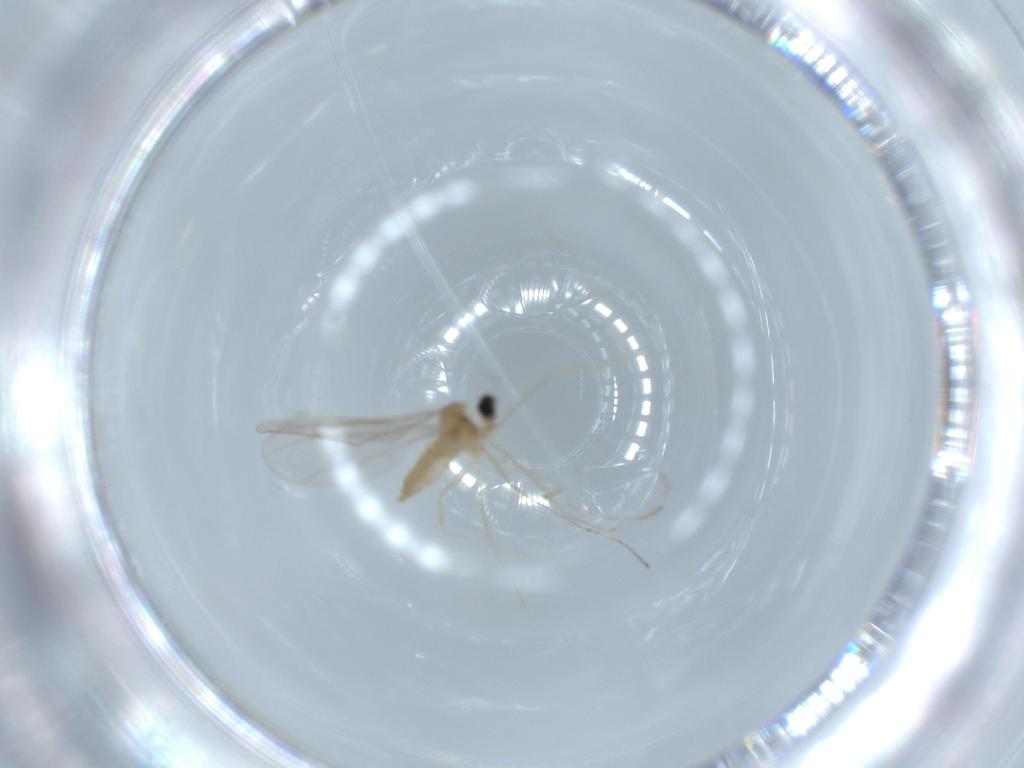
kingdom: Animalia
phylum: Arthropoda
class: Insecta
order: Diptera
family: Cecidomyiidae
